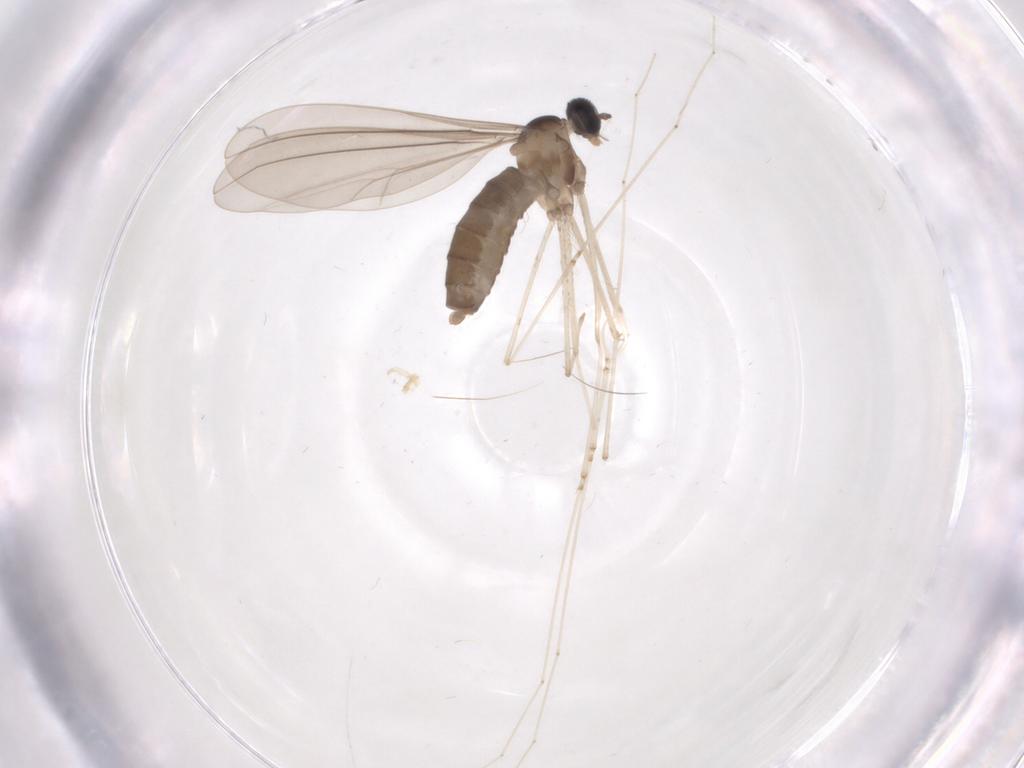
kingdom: Animalia
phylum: Arthropoda
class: Insecta
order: Diptera
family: Cecidomyiidae
